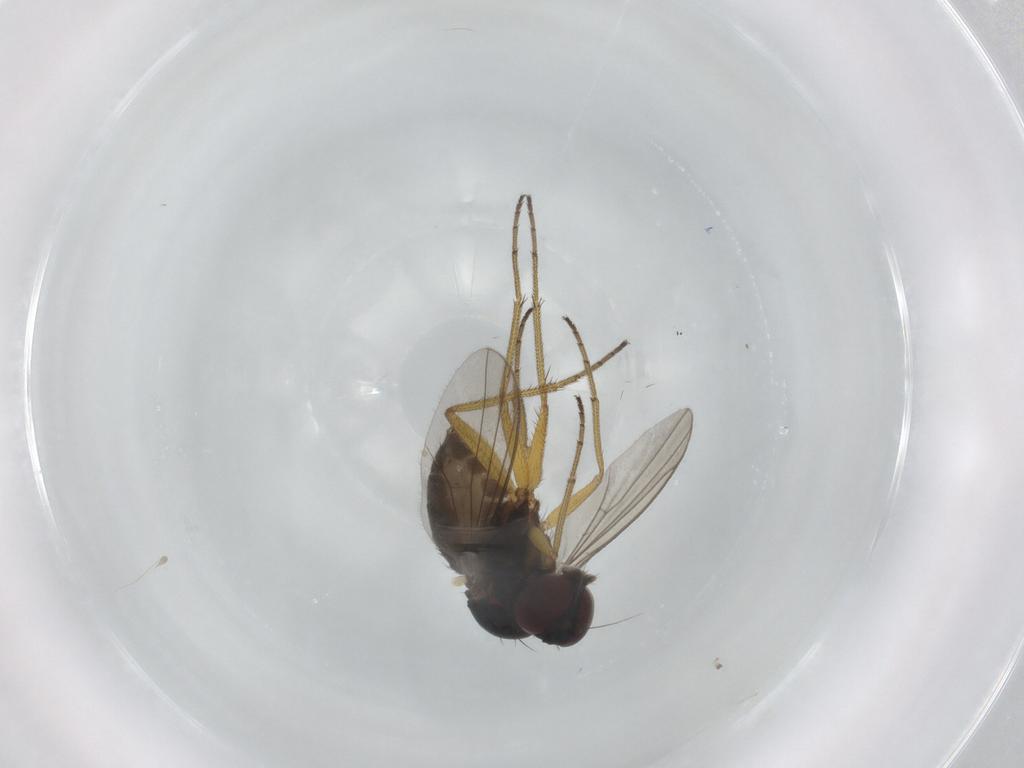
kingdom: Animalia
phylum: Arthropoda
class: Insecta
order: Diptera
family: Dolichopodidae
